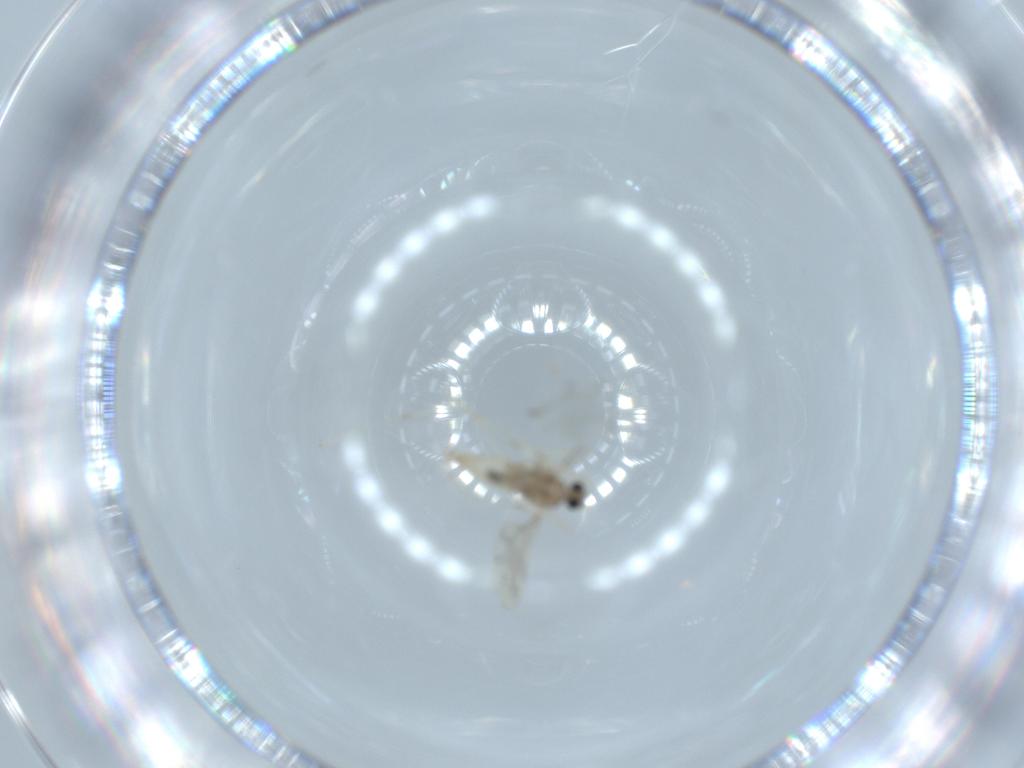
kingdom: Animalia
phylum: Arthropoda
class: Insecta
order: Diptera
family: Cecidomyiidae
